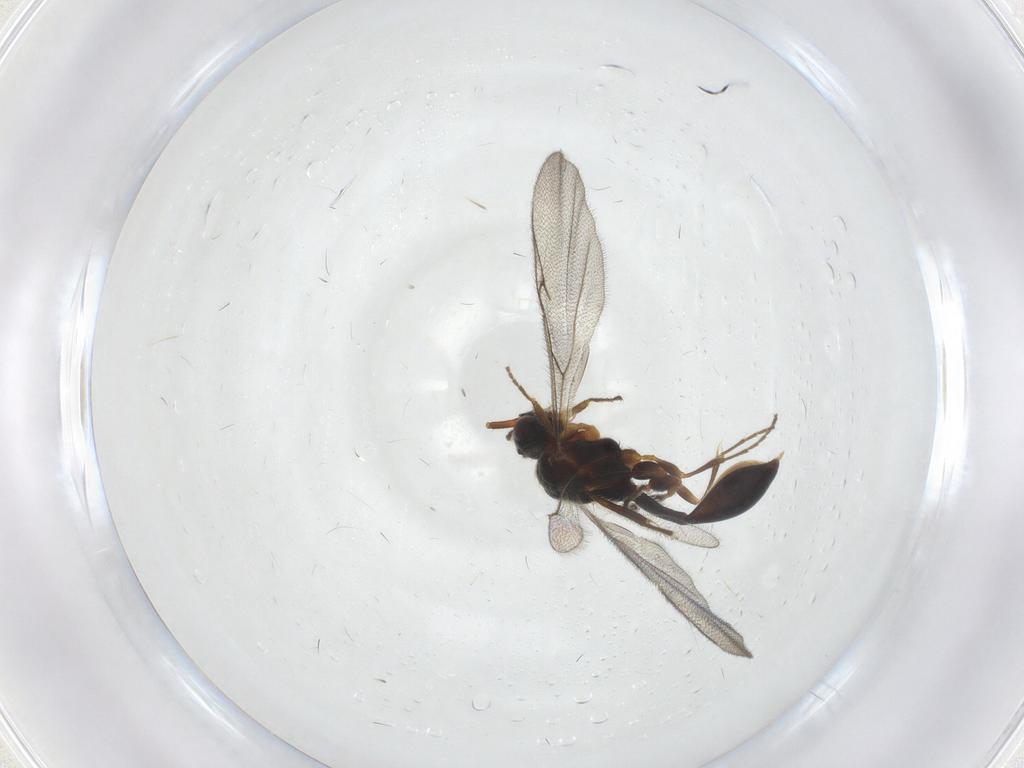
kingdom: Animalia
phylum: Arthropoda
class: Insecta
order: Hymenoptera
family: Diapriidae
